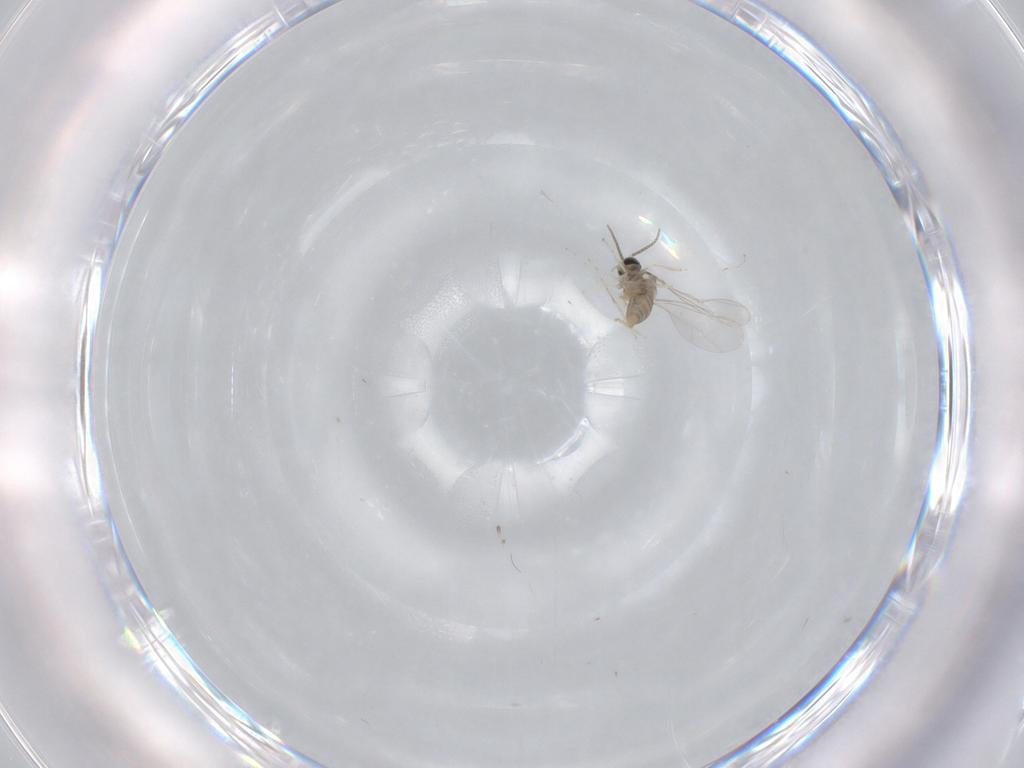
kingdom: Animalia
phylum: Arthropoda
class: Insecta
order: Diptera
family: Cecidomyiidae
